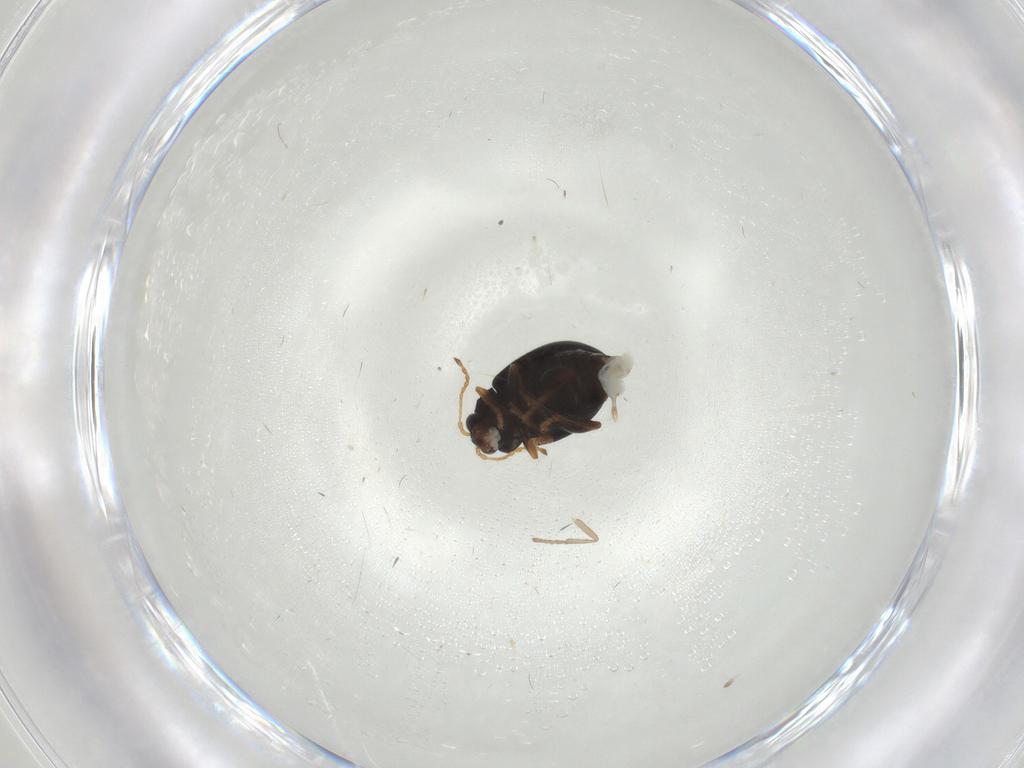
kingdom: Animalia
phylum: Arthropoda
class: Insecta
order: Coleoptera
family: Chrysomelidae
